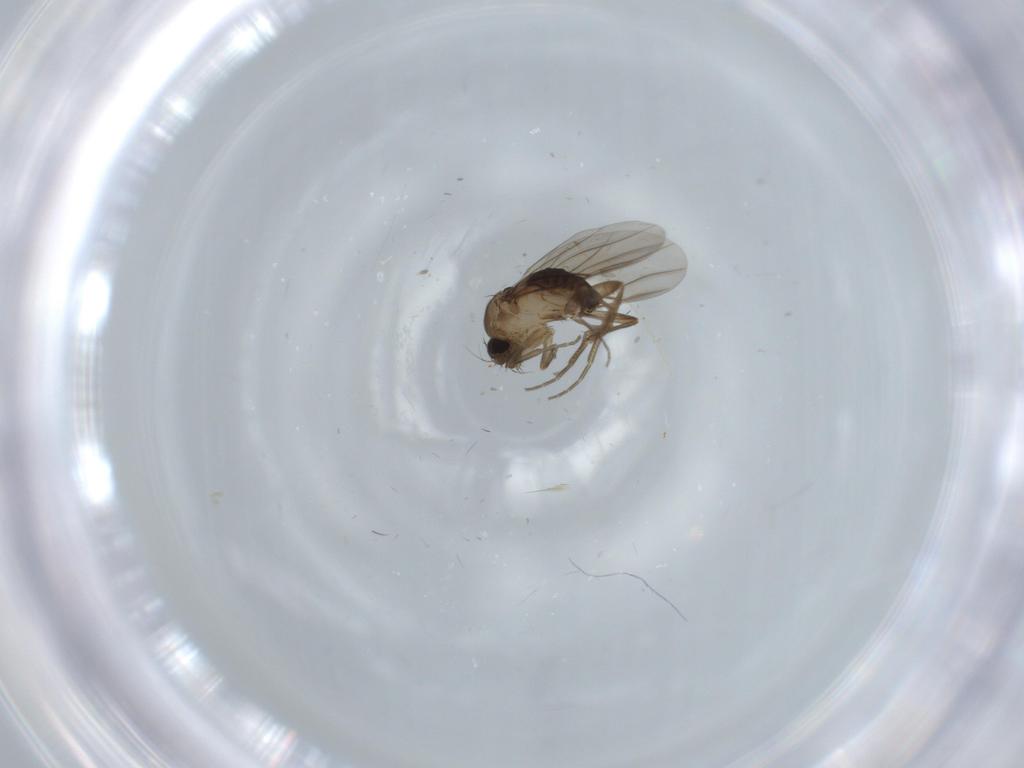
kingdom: Animalia
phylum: Arthropoda
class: Insecta
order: Diptera
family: Phoridae
